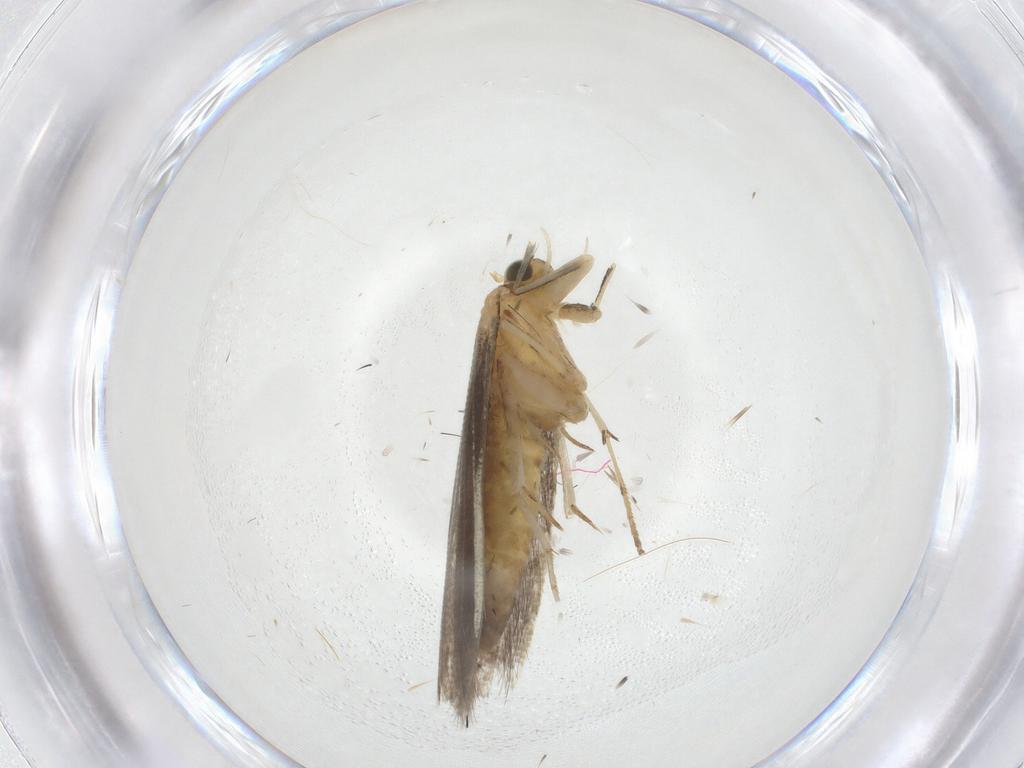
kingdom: Animalia
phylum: Arthropoda
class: Insecta
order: Lepidoptera
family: Argyresthiidae
